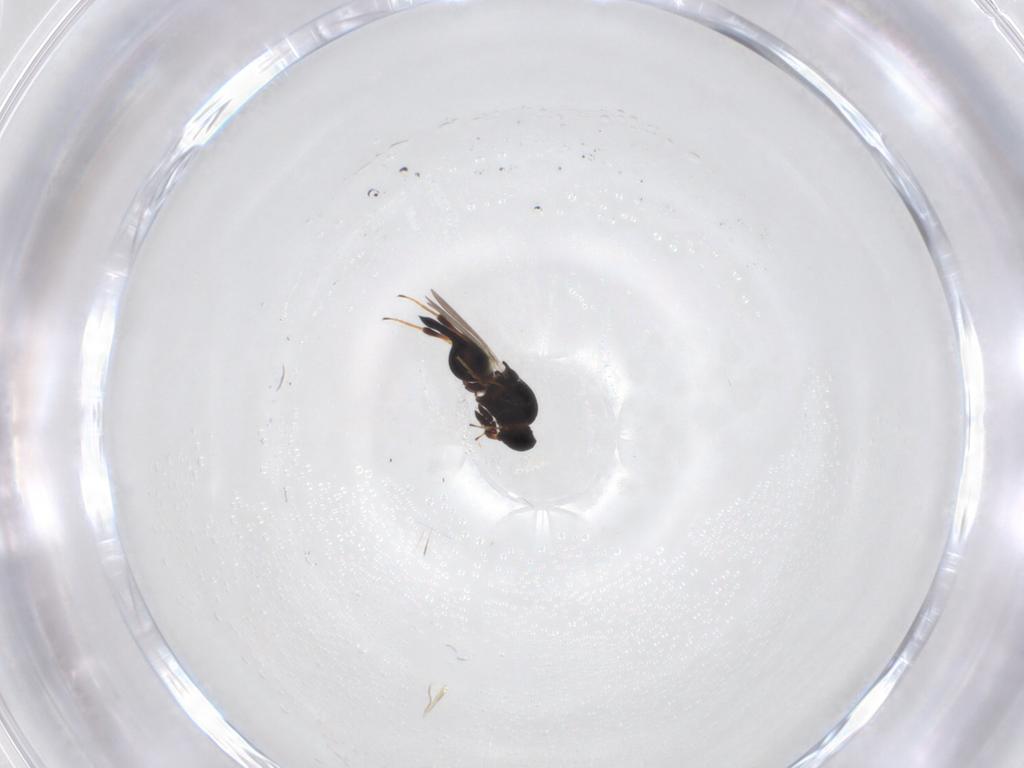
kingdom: Animalia
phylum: Arthropoda
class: Insecta
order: Hymenoptera
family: Platygastridae
